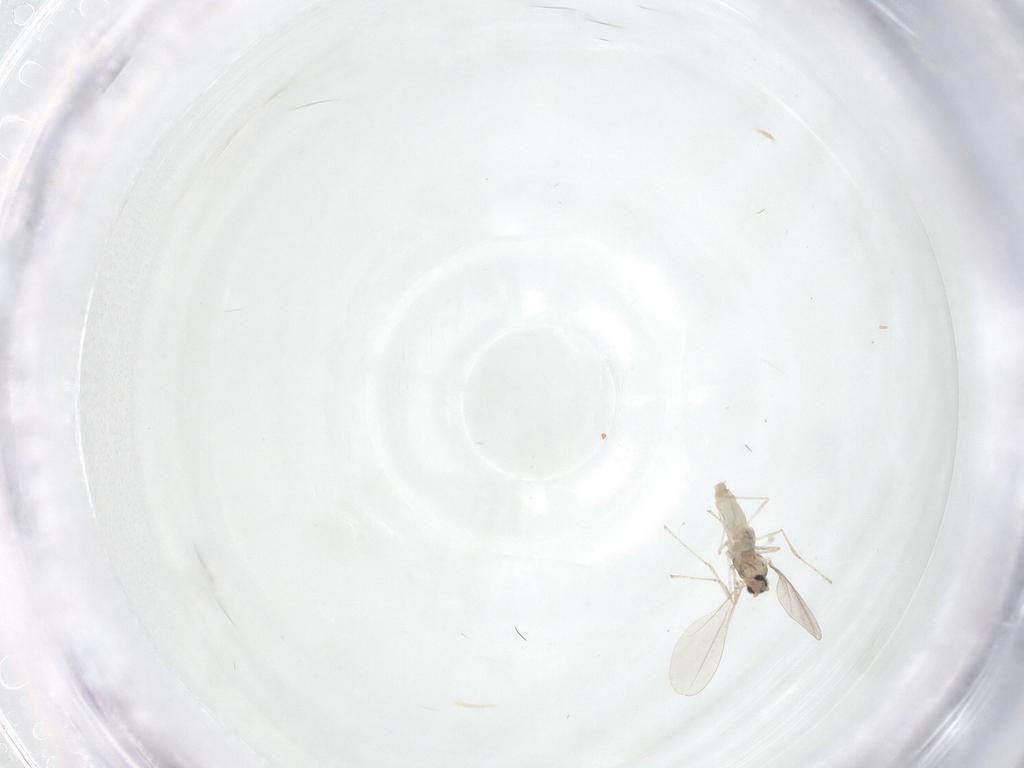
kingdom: Animalia
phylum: Arthropoda
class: Insecta
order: Diptera
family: Cecidomyiidae
